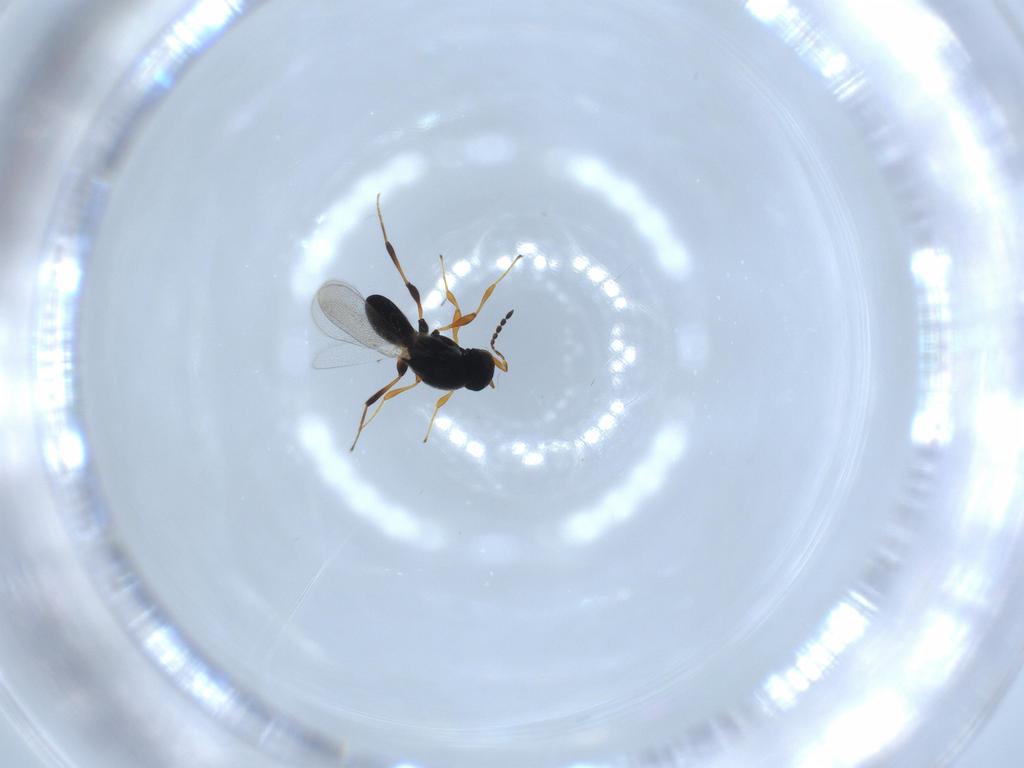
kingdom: Animalia
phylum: Arthropoda
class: Insecta
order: Hymenoptera
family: Platygastridae
